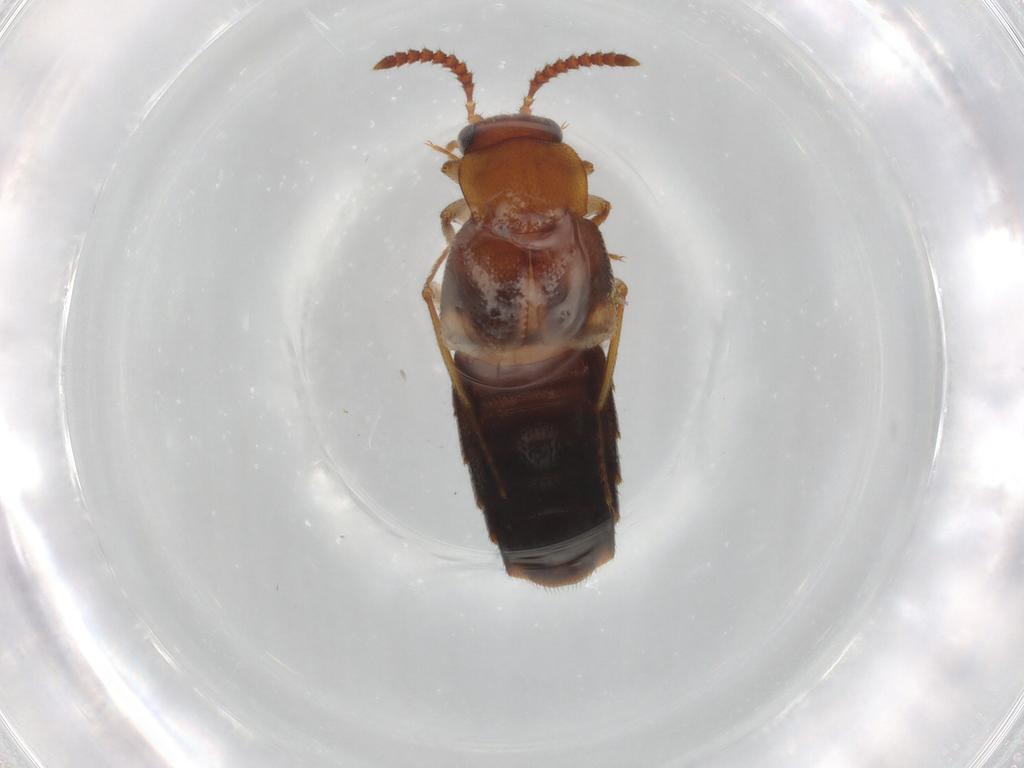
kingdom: Animalia
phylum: Arthropoda
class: Insecta
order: Coleoptera
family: Staphylinidae
